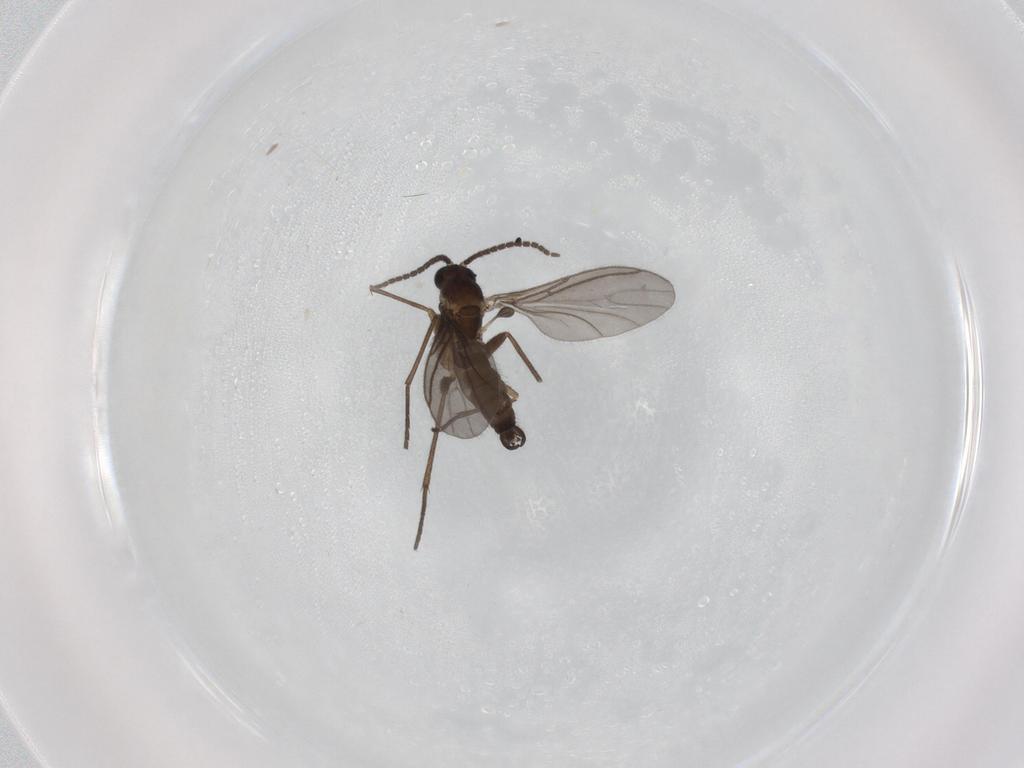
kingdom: Animalia
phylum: Arthropoda
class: Insecta
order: Diptera
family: Sciaridae
